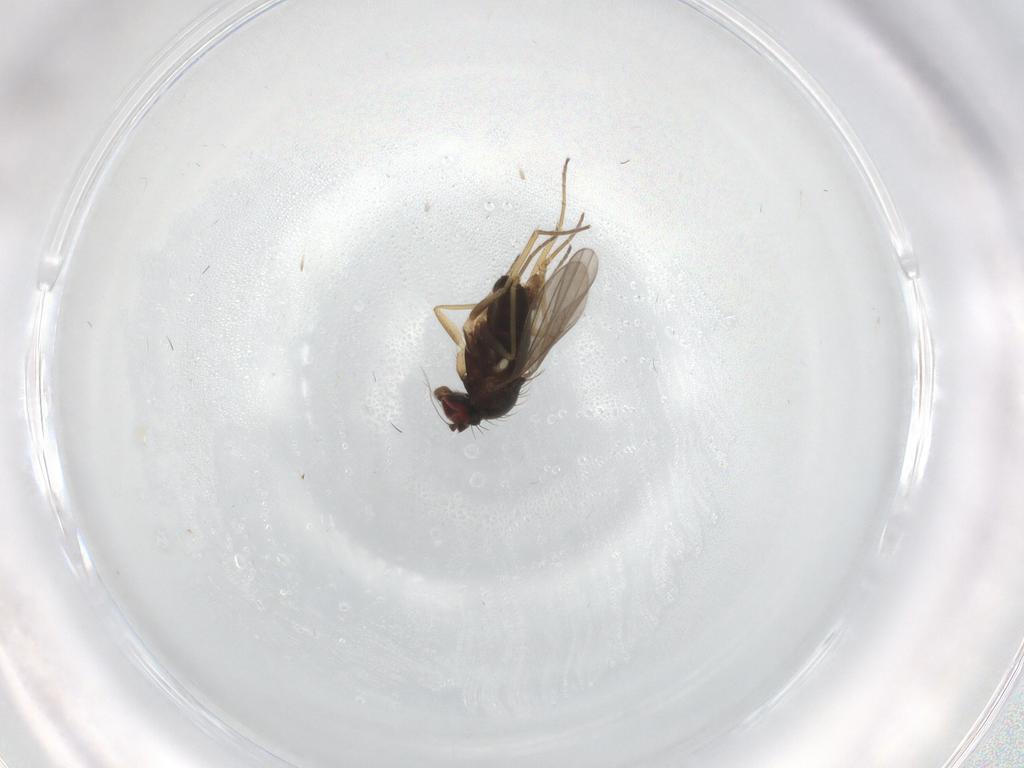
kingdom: Animalia
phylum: Arthropoda
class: Insecta
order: Diptera
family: Dolichopodidae
